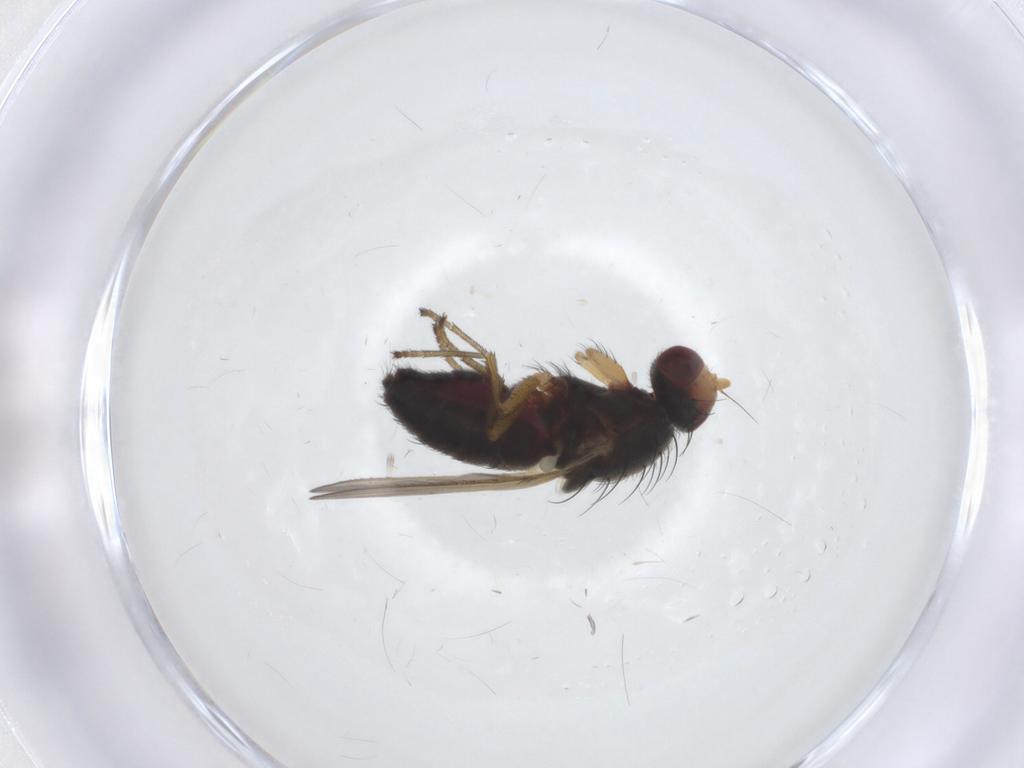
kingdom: Animalia
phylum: Arthropoda
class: Insecta
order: Diptera
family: Heleomyzidae
